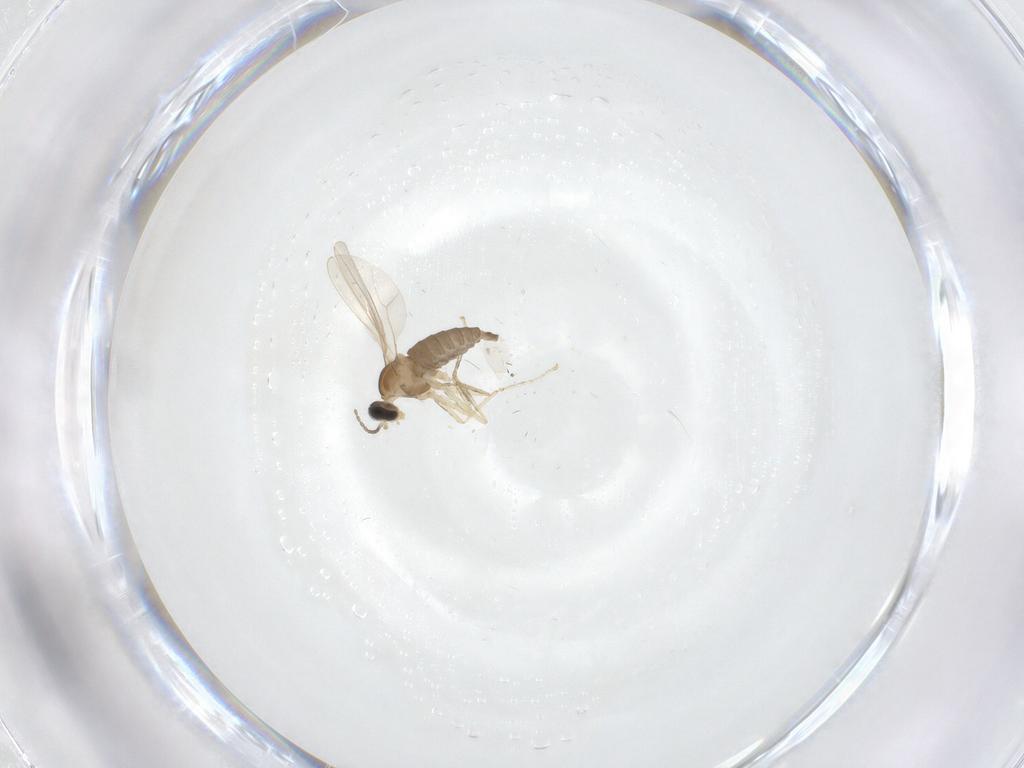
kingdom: Animalia
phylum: Arthropoda
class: Insecta
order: Diptera
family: Cecidomyiidae
